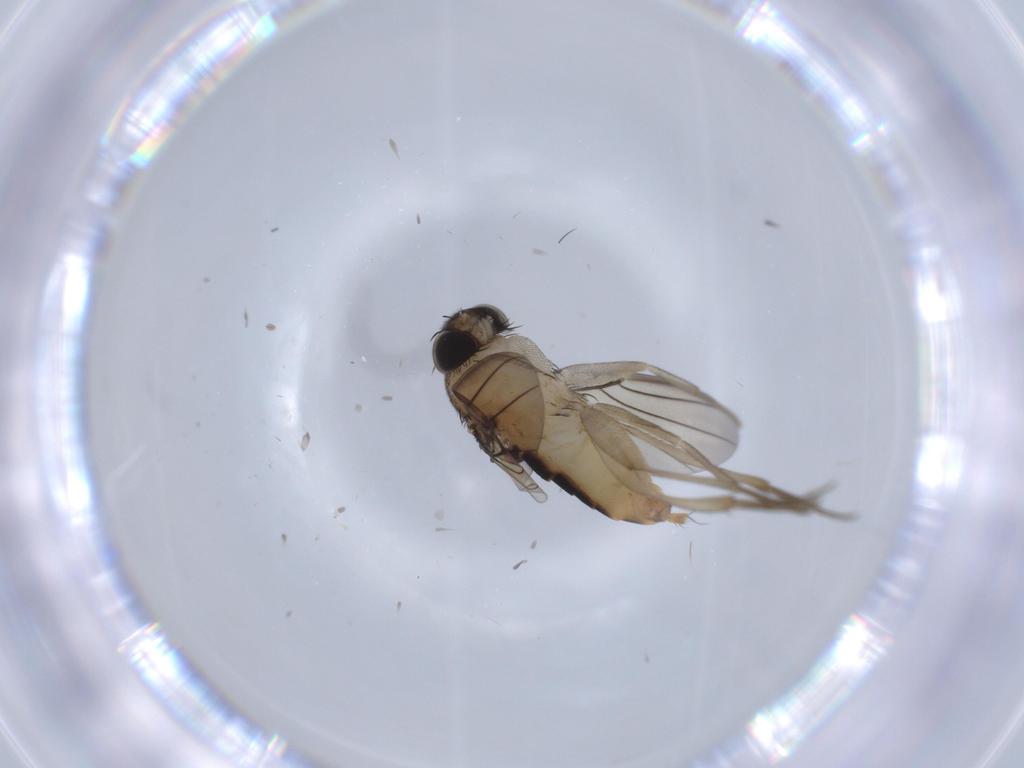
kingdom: Animalia
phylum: Arthropoda
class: Insecta
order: Diptera
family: Phoridae
